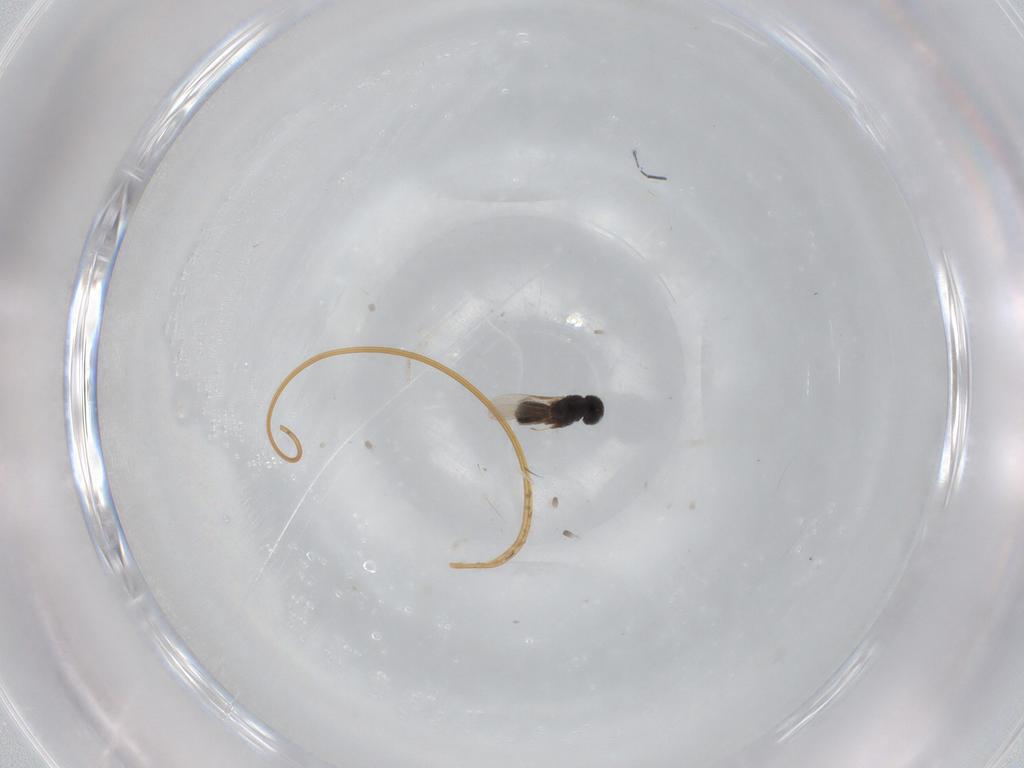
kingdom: Animalia
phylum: Arthropoda
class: Insecta
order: Hymenoptera
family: Scelionidae
